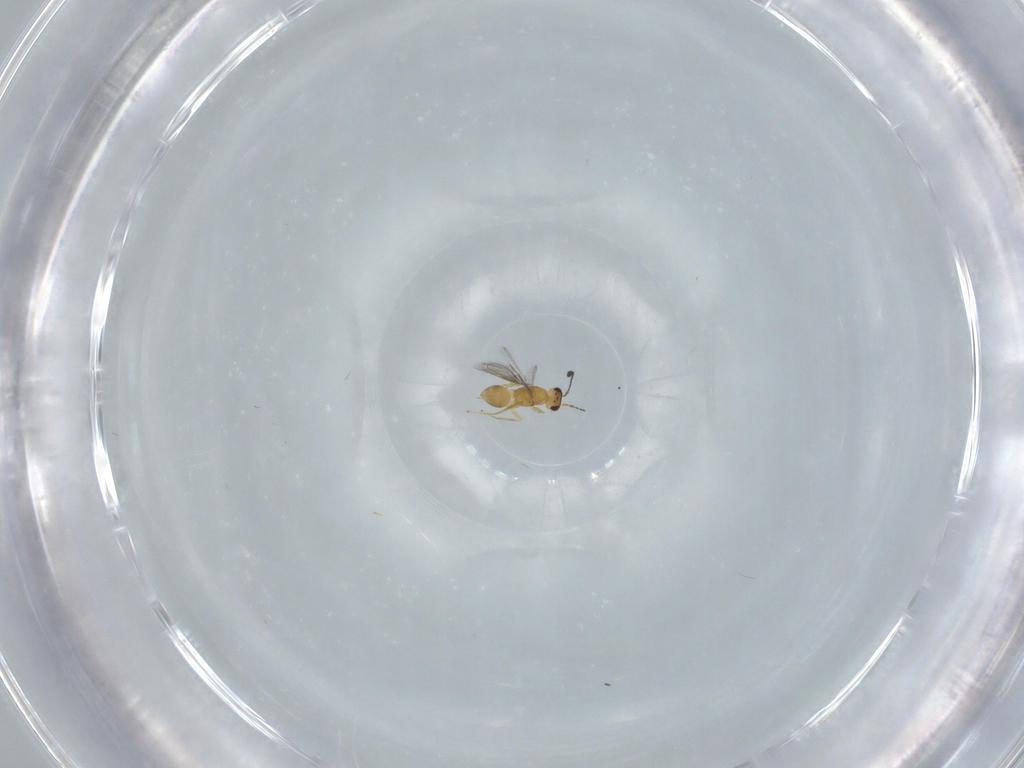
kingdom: Animalia
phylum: Arthropoda
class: Insecta
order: Hymenoptera
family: Mymaridae
